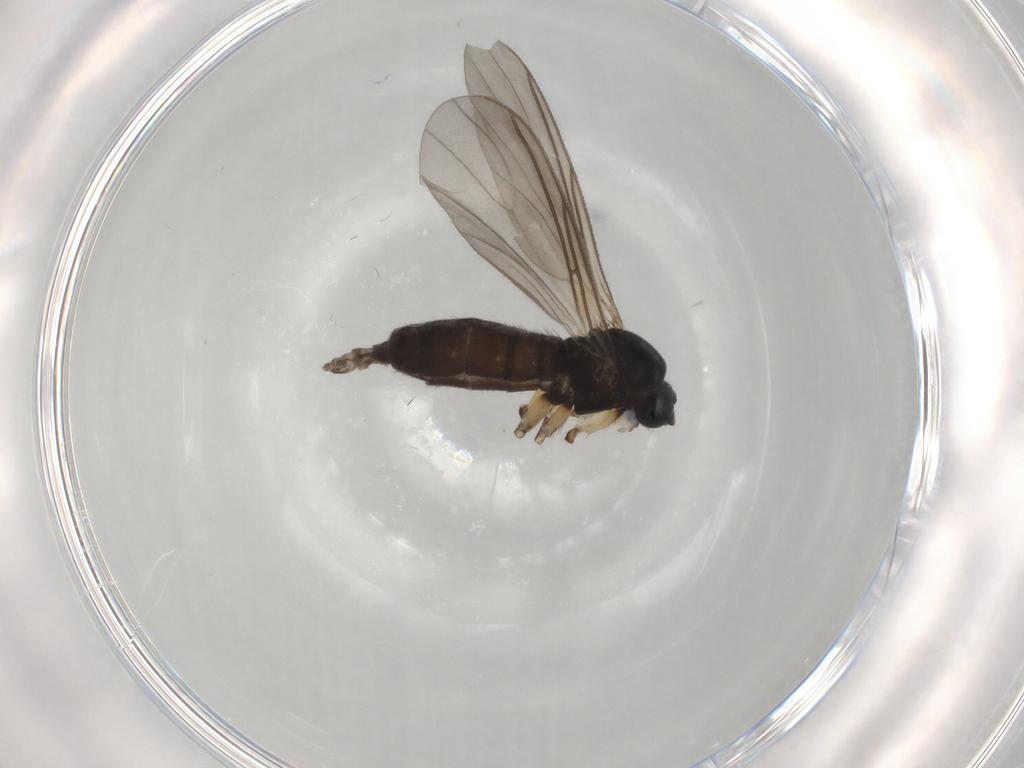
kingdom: Animalia
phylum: Arthropoda
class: Insecta
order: Diptera
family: Sciaridae
